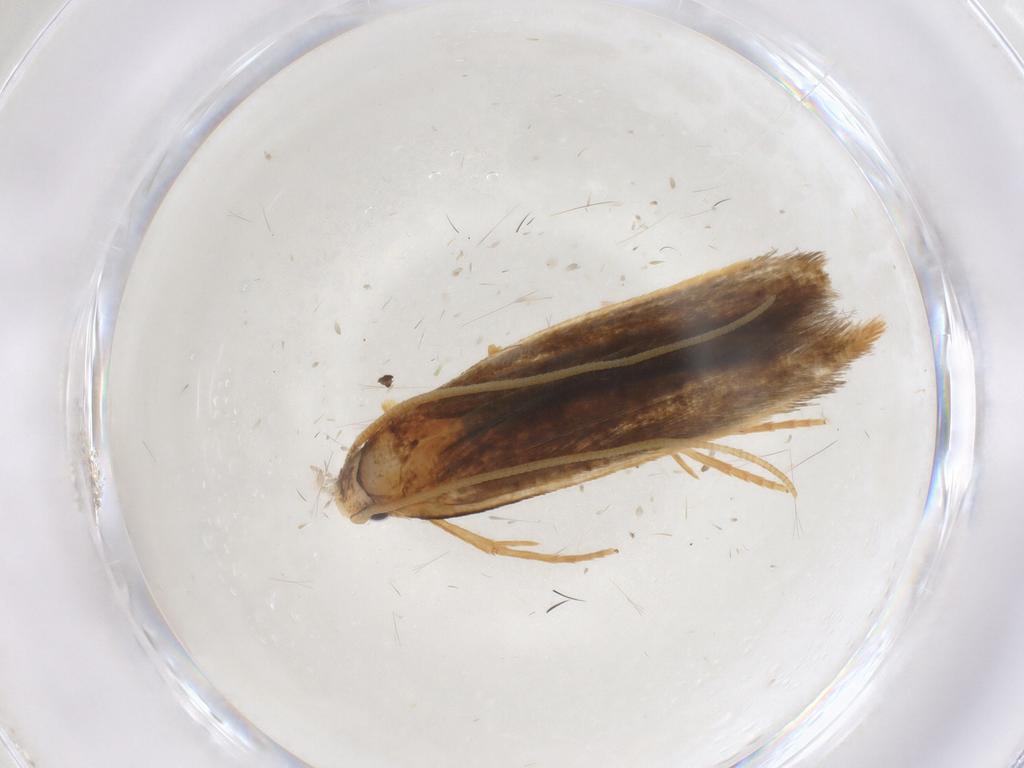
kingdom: Animalia
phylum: Arthropoda
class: Insecta
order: Lepidoptera
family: Tineidae
